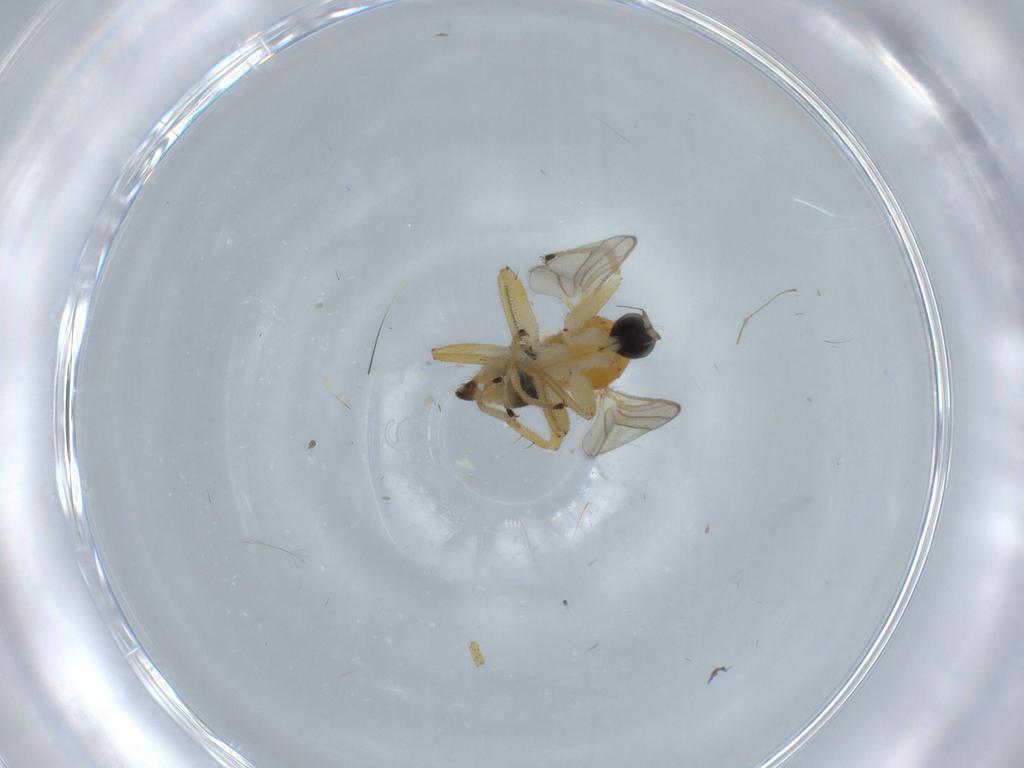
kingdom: Animalia
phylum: Arthropoda
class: Insecta
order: Diptera
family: Hybotidae
